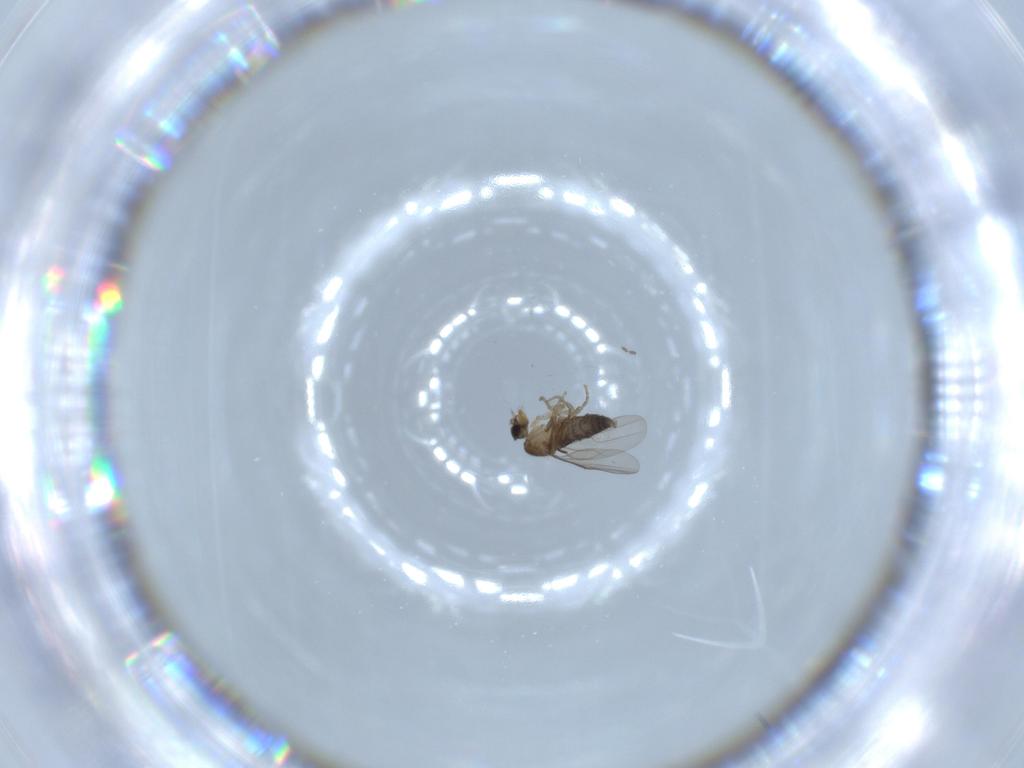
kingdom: Animalia
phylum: Arthropoda
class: Insecta
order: Diptera
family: Phoridae
